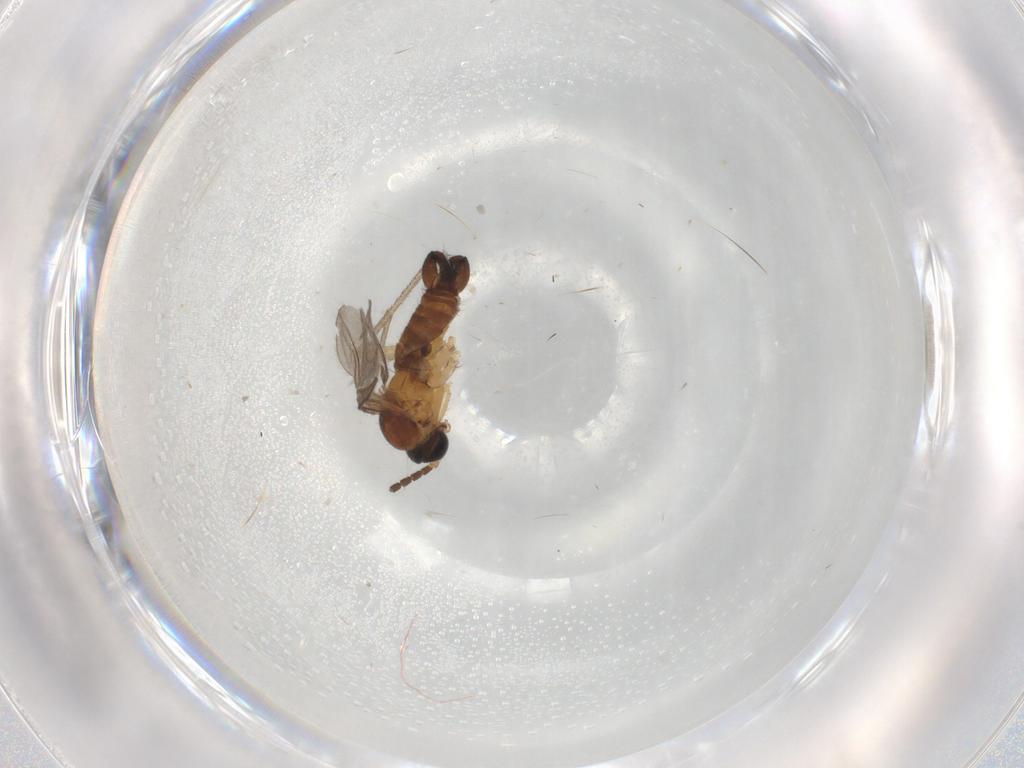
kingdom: Animalia
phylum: Arthropoda
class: Insecta
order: Diptera
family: Sciaridae
